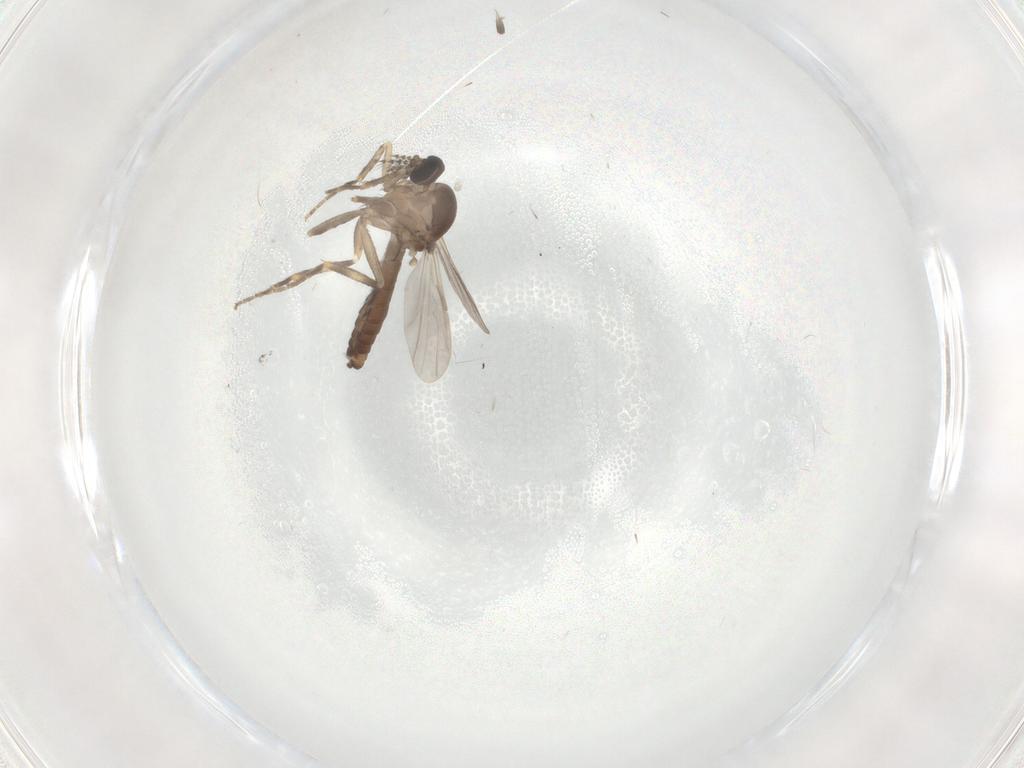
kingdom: Animalia
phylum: Arthropoda
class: Insecta
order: Diptera
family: Ceratopogonidae
